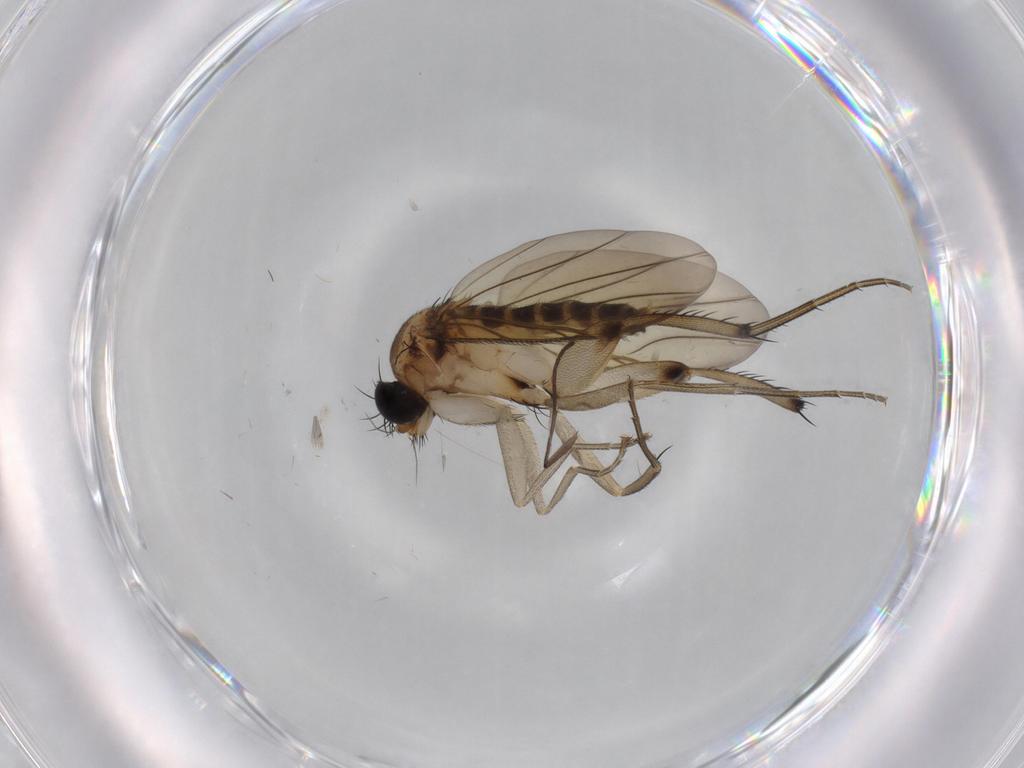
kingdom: Animalia
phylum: Arthropoda
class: Insecta
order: Diptera
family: Phoridae
